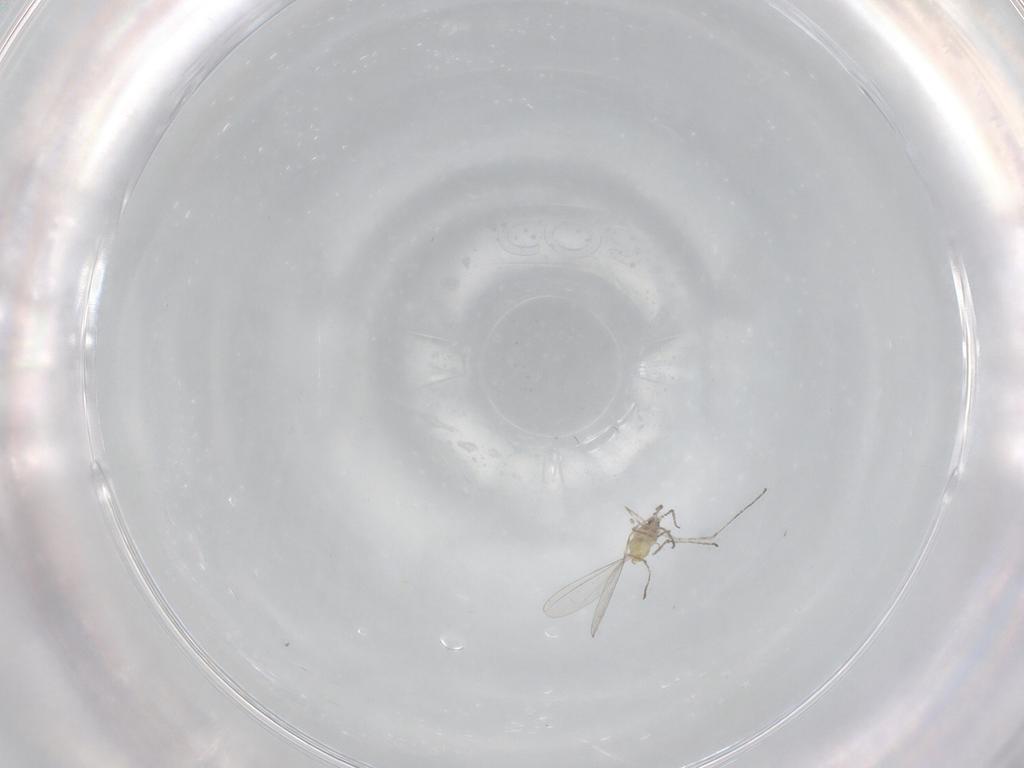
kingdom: Animalia
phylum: Arthropoda
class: Insecta
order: Diptera
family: Cecidomyiidae
